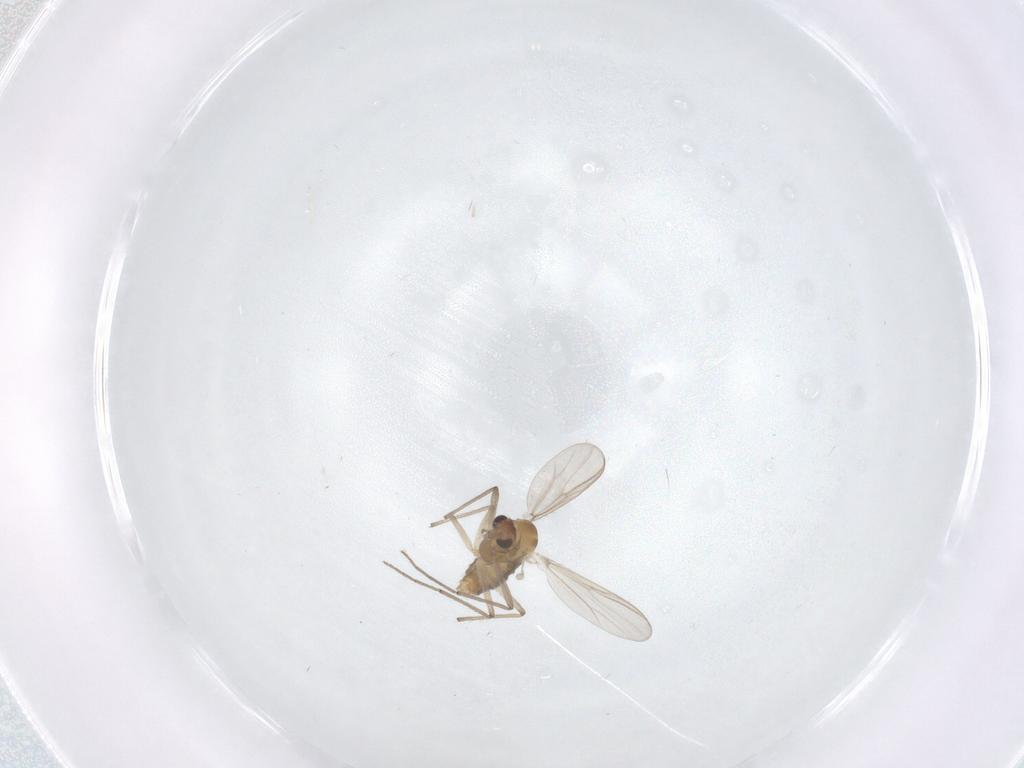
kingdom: Animalia
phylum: Arthropoda
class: Insecta
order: Diptera
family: Chironomidae
